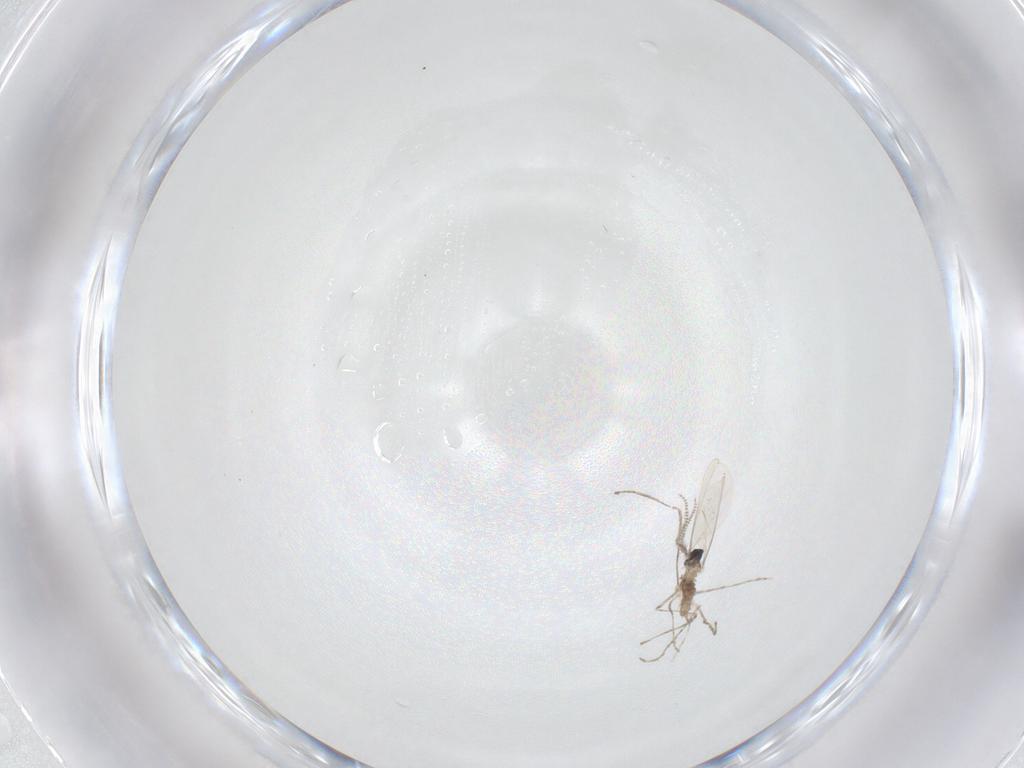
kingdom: Animalia
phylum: Arthropoda
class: Insecta
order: Diptera
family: Cecidomyiidae
